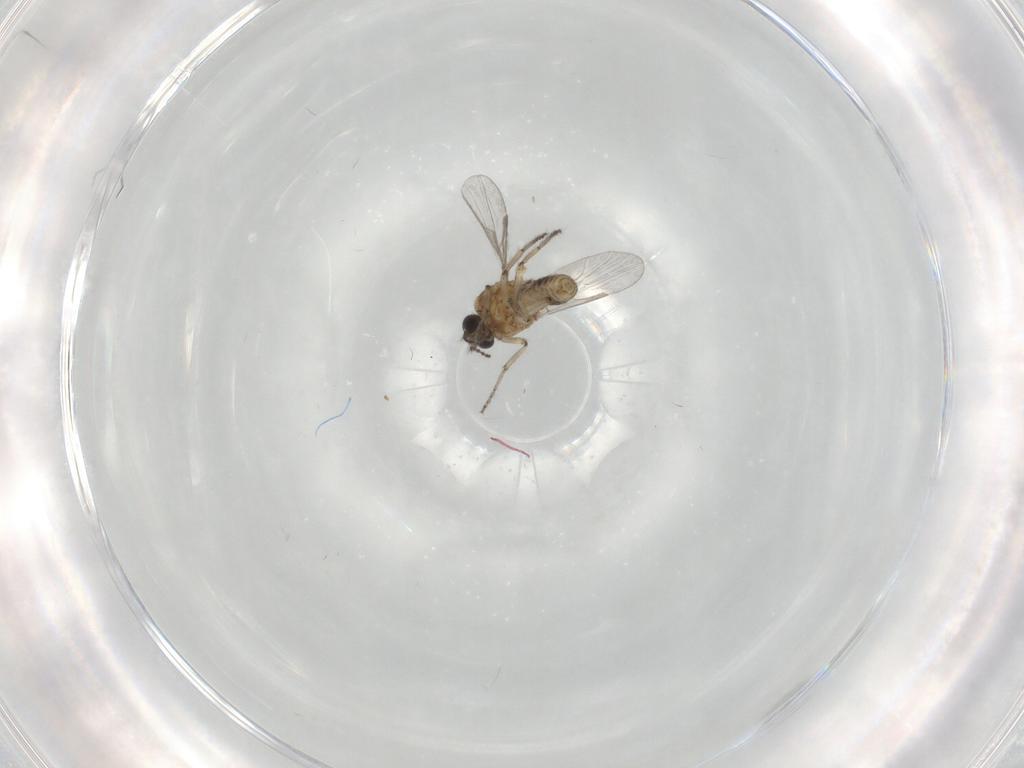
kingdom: Animalia
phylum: Arthropoda
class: Insecta
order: Diptera
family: Ceratopogonidae
